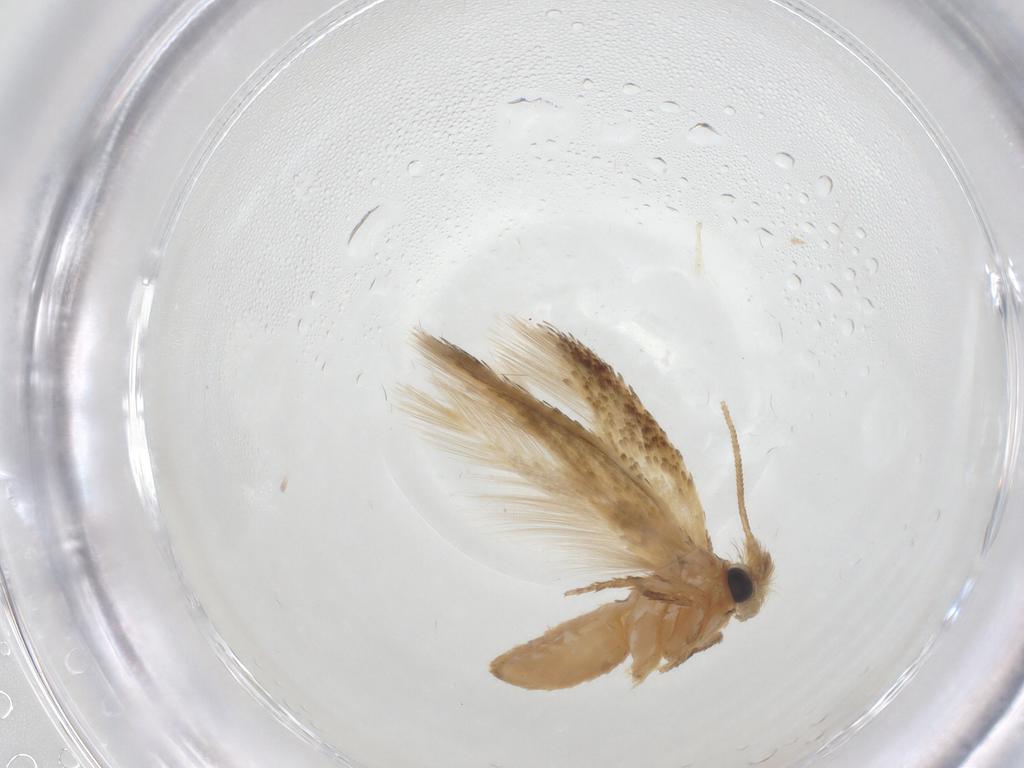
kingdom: Animalia
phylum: Arthropoda
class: Insecta
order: Lepidoptera
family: Nepticulidae
